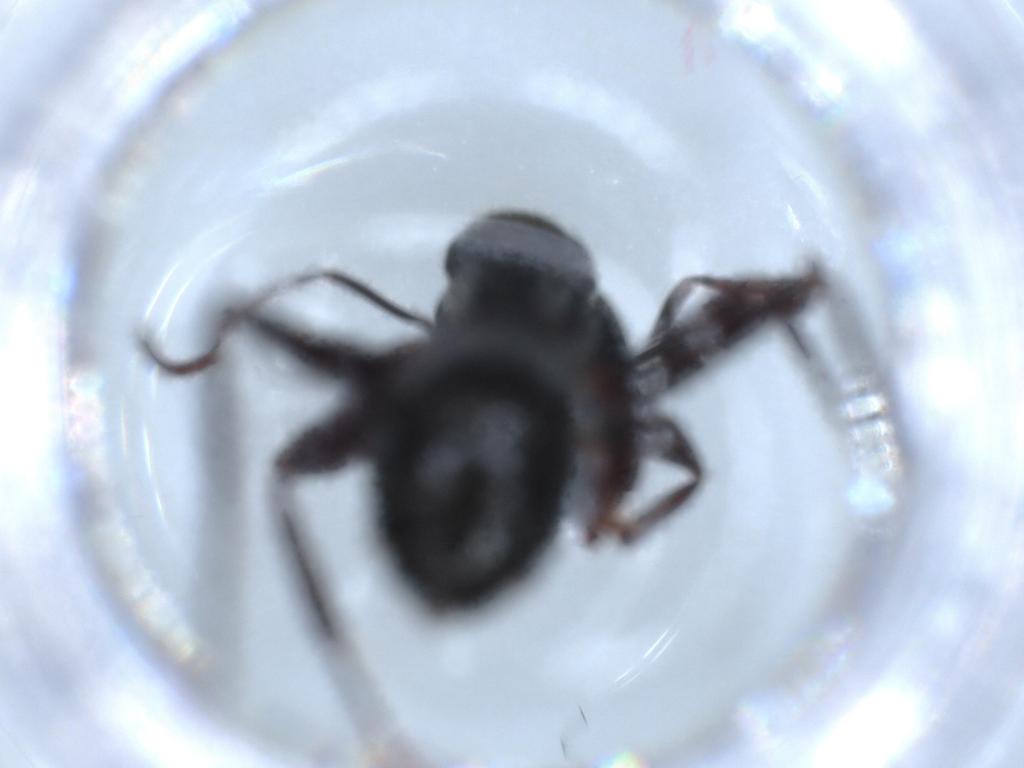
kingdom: Animalia
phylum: Arthropoda
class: Insecta
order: Hymenoptera
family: Formicidae
